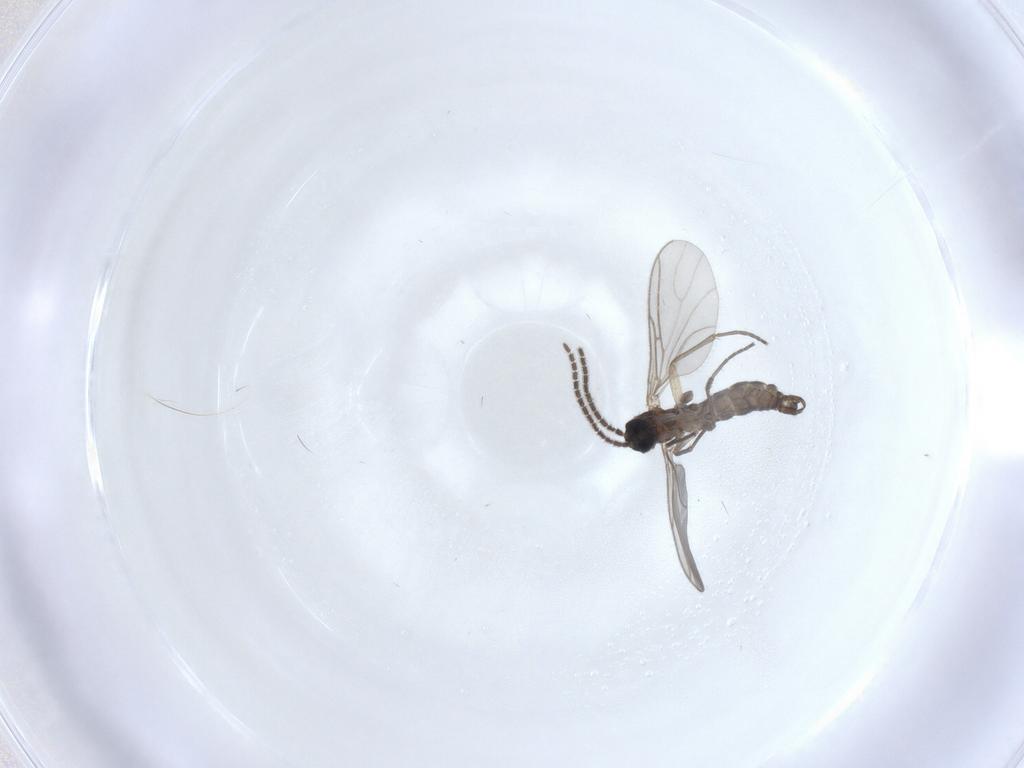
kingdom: Animalia
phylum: Arthropoda
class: Insecta
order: Diptera
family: Sciaridae
